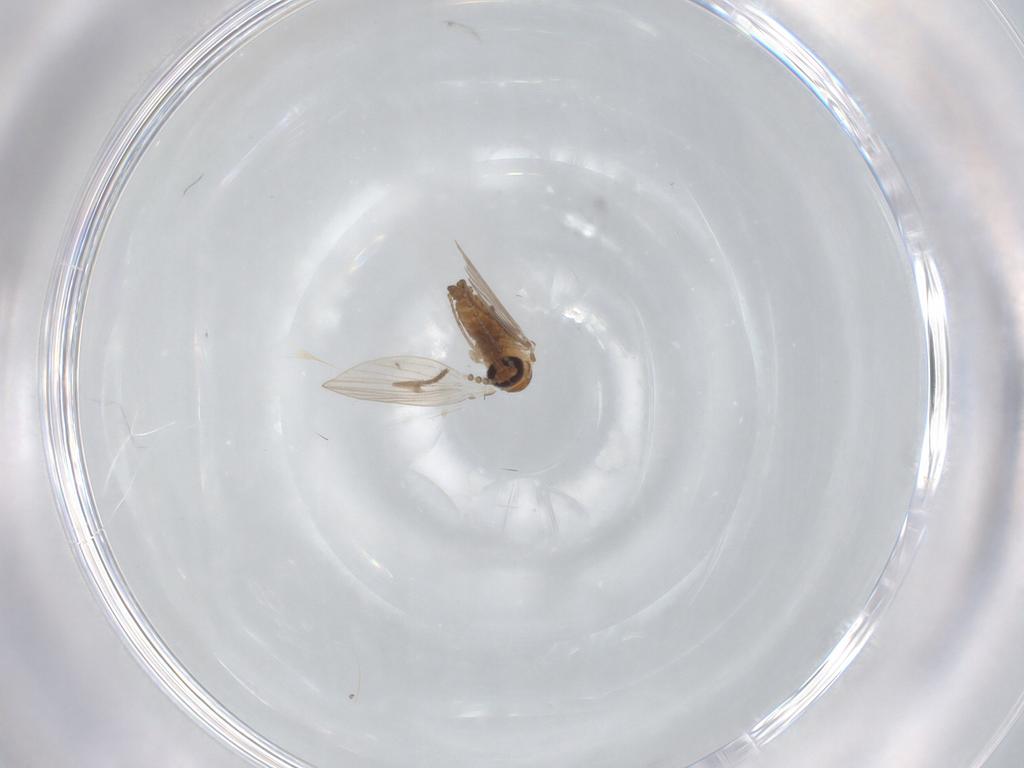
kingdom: Animalia
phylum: Arthropoda
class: Insecta
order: Diptera
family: Psychodidae
